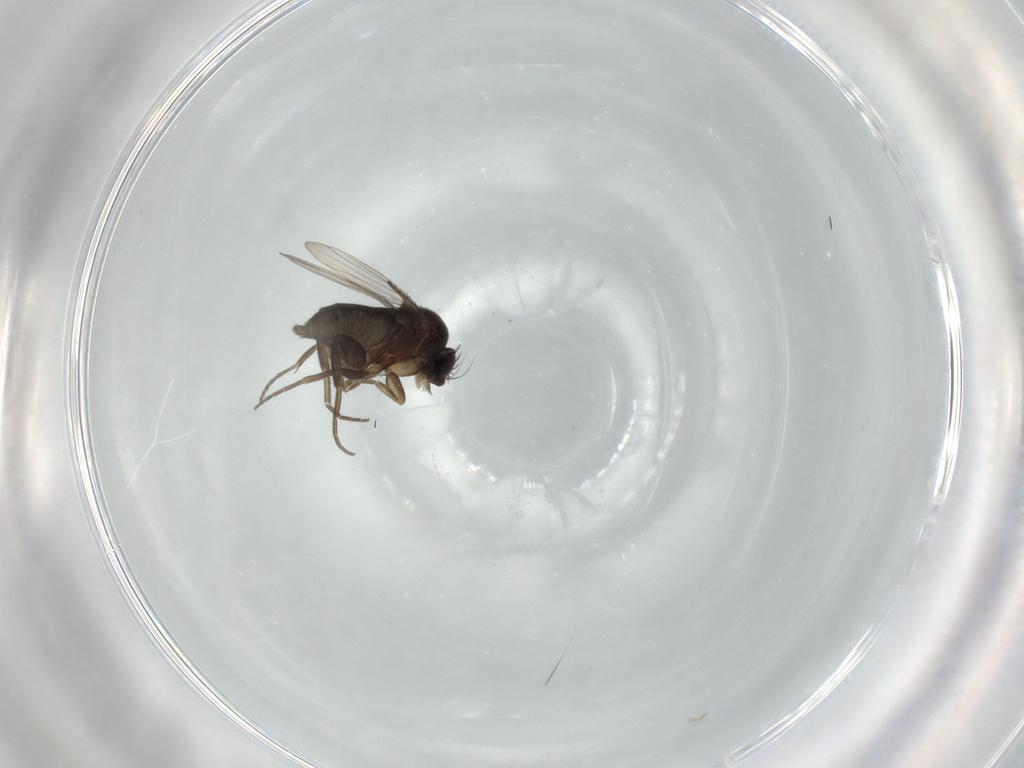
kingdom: Animalia
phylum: Arthropoda
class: Insecta
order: Diptera
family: Phoridae
